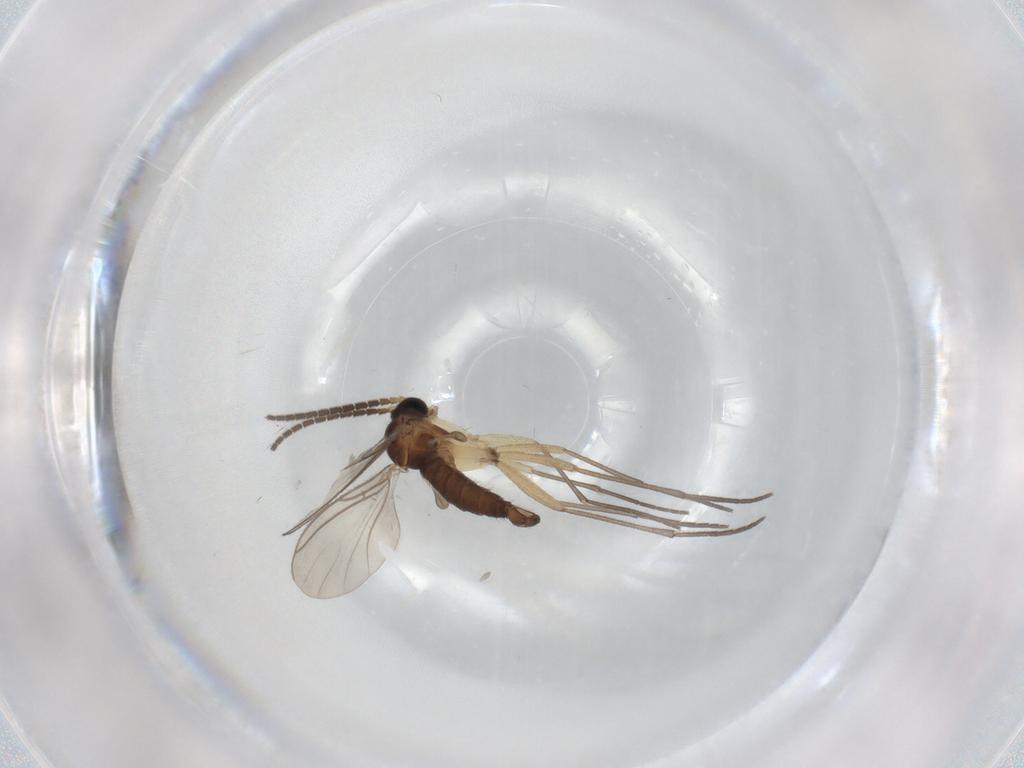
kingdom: Animalia
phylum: Arthropoda
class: Insecta
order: Diptera
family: Sciaridae
